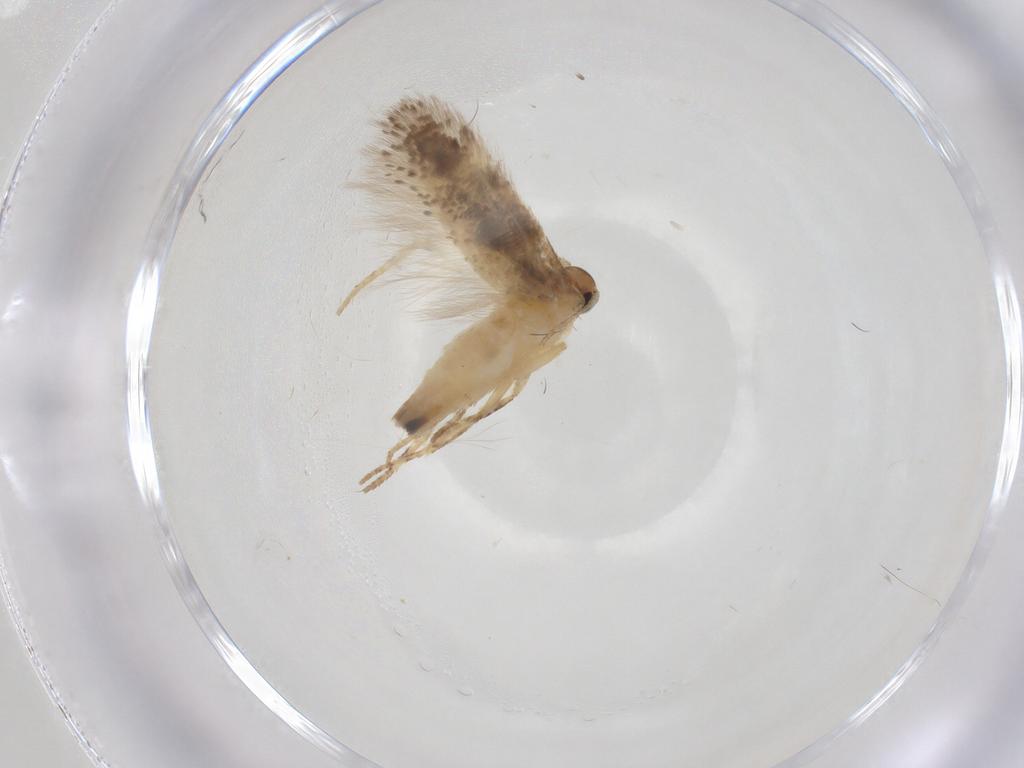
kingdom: Animalia
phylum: Arthropoda
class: Insecta
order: Lepidoptera
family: Gelechiidae
